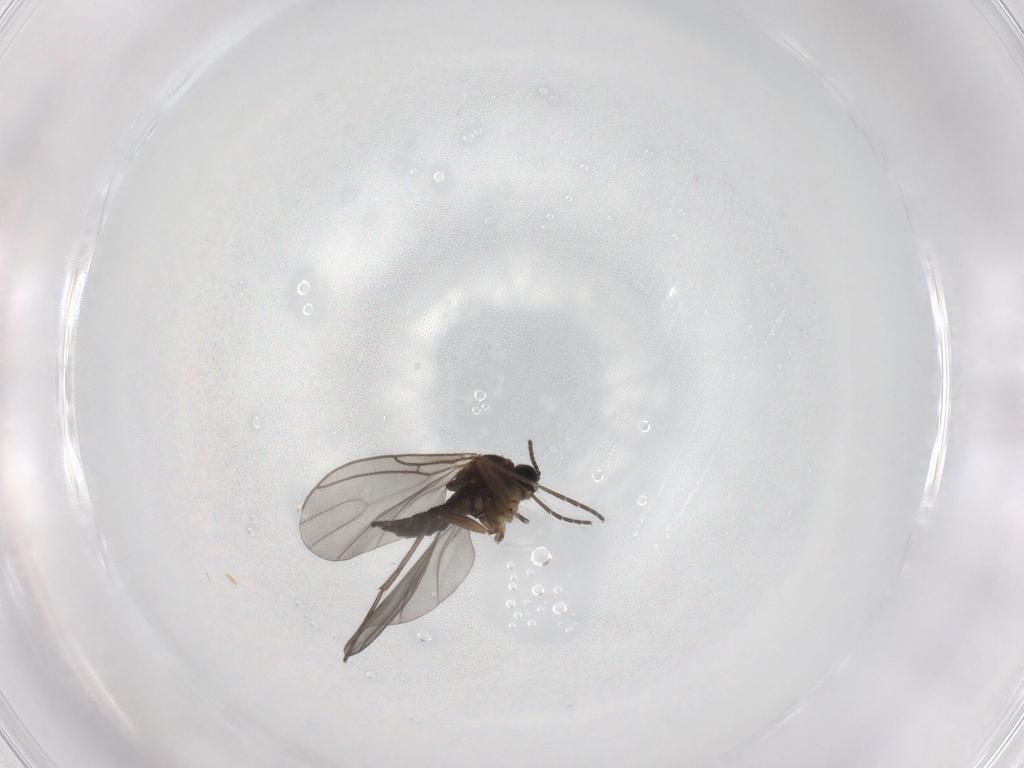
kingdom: Animalia
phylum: Arthropoda
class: Insecta
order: Diptera
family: Sciaridae
